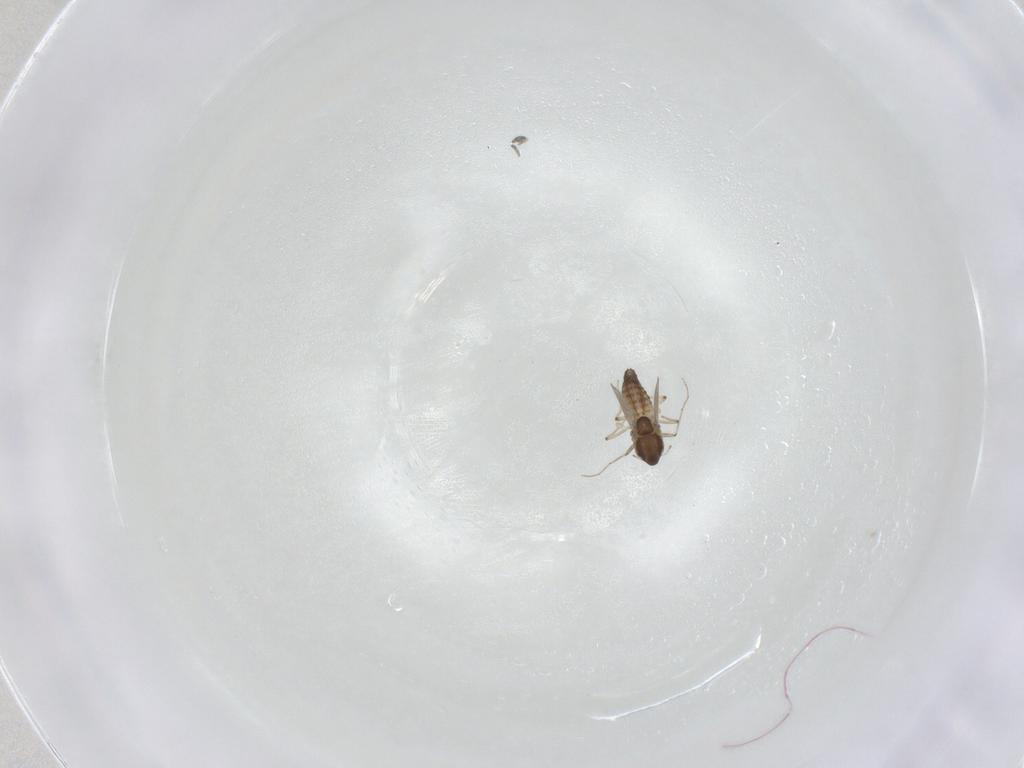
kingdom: Animalia
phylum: Arthropoda
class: Insecta
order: Diptera
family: Chironomidae
